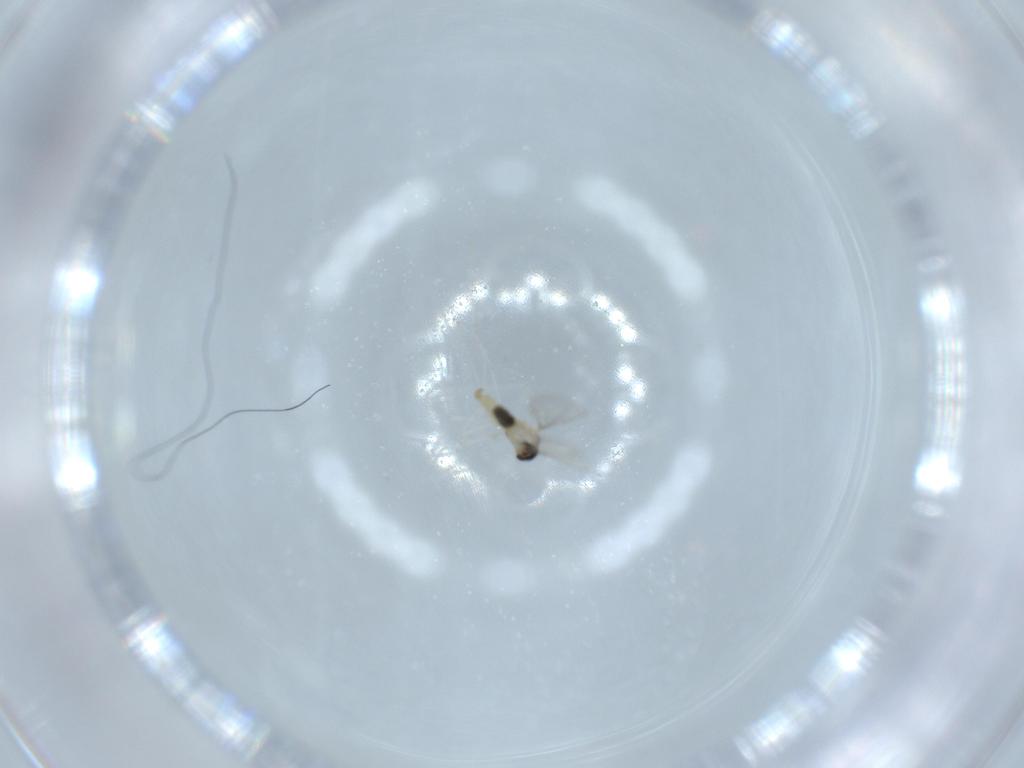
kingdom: Animalia
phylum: Arthropoda
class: Insecta
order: Diptera
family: Cecidomyiidae
